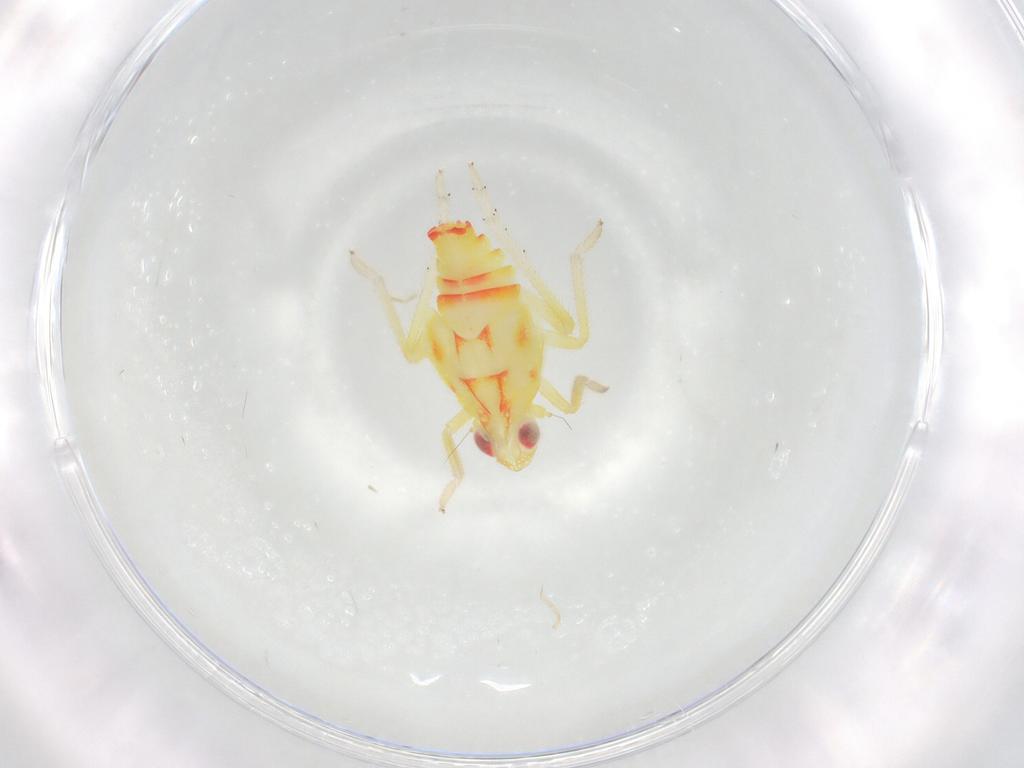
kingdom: Animalia
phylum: Arthropoda
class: Insecta
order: Hemiptera
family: Tropiduchidae
